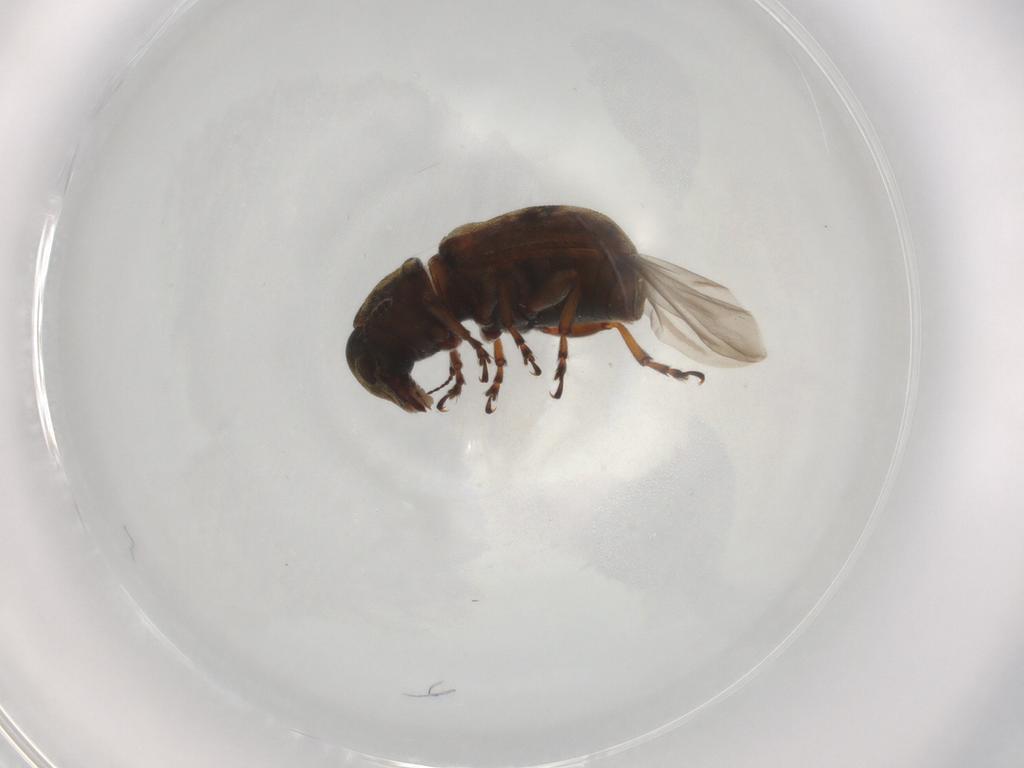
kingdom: Animalia
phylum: Arthropoda
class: Insecta
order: Coleoptera
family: Anthribidae
